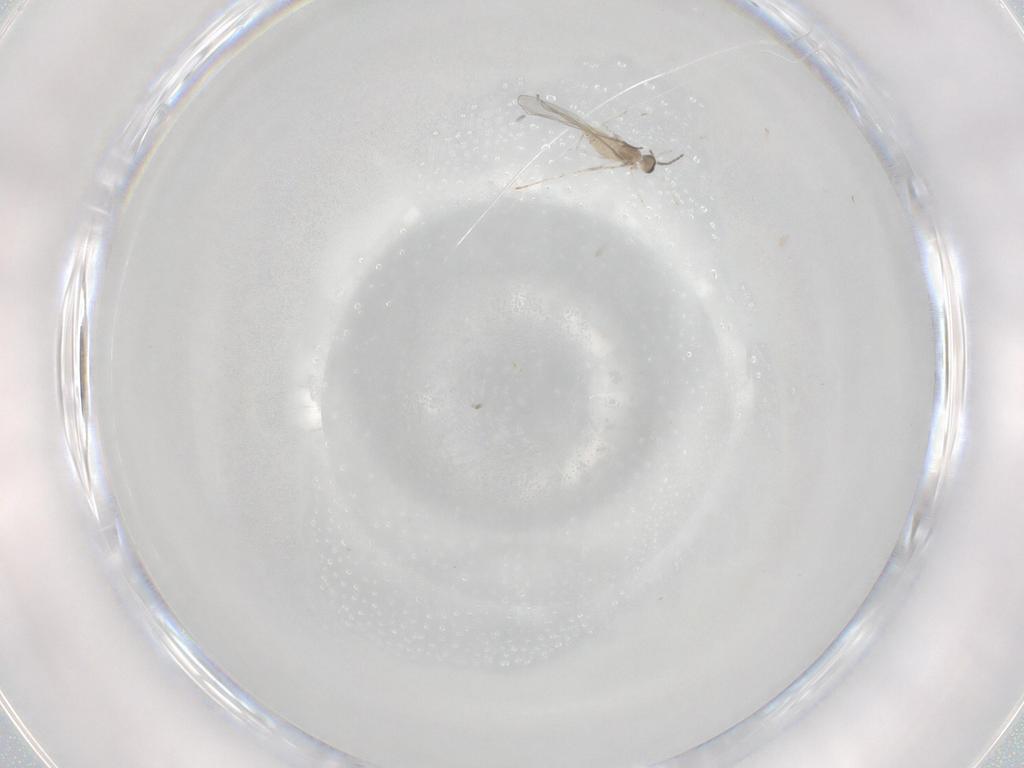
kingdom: Animalia
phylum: Arthropoda
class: Insecta
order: Diptera
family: Cecidomyiidae
